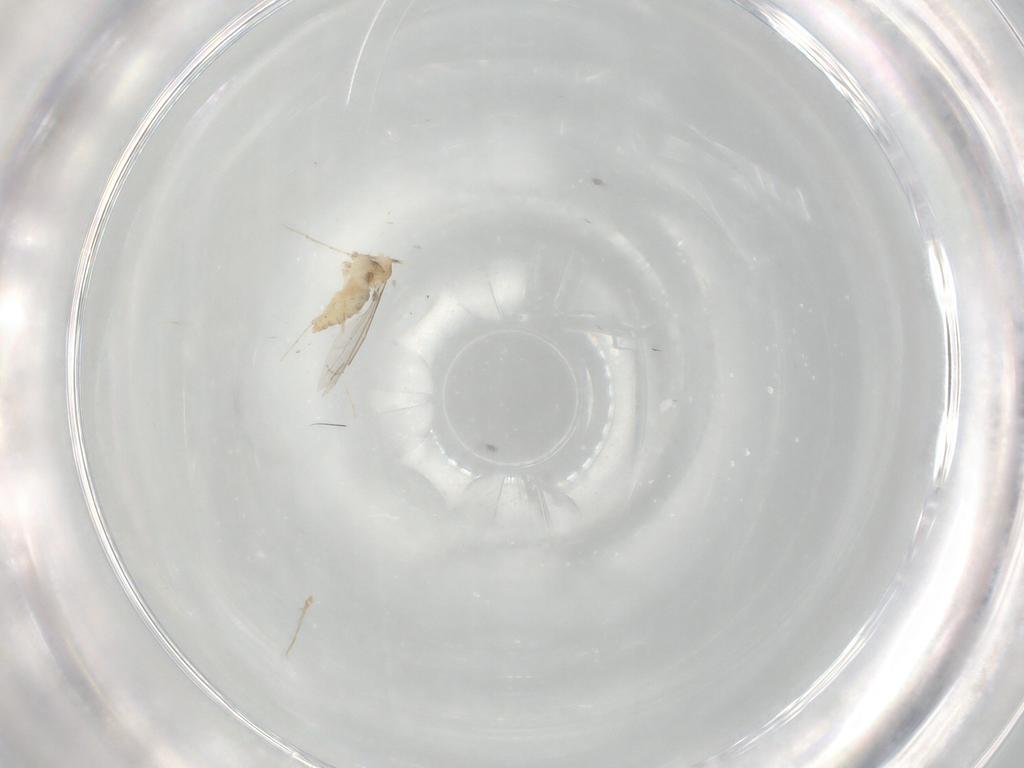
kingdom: Animalia
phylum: Arthropoda
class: Insecta
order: Diptera
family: Cecidomyiidae
